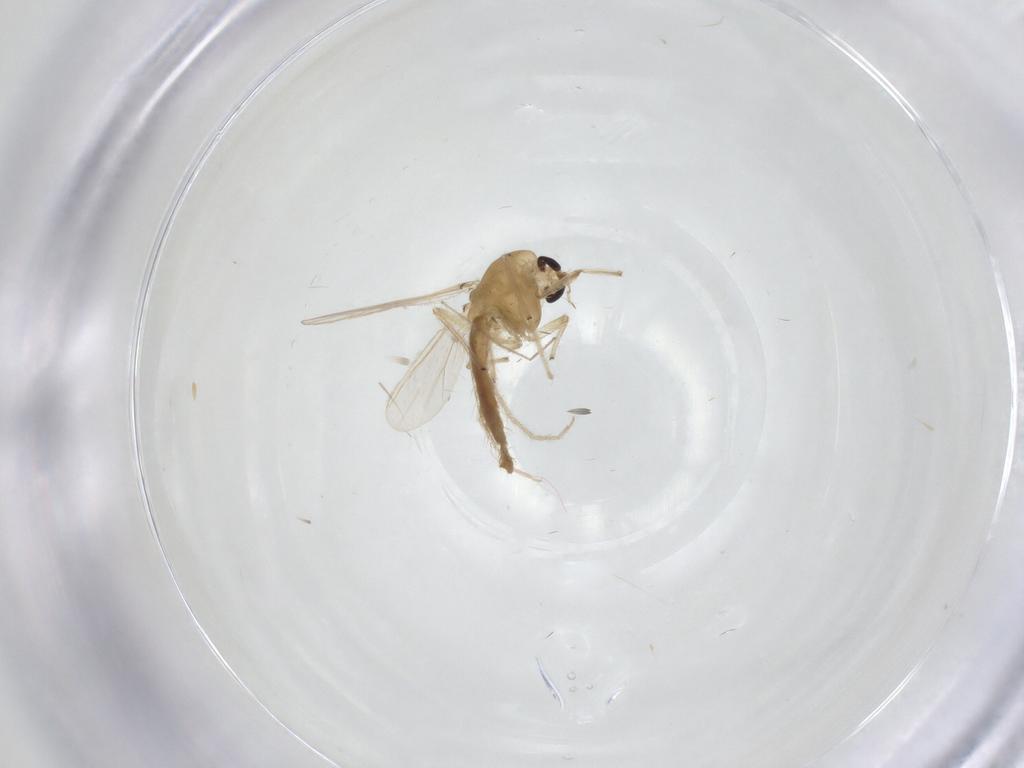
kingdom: Animalia
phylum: Arthropoda
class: Insecta
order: Diptera
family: Chironomidae
